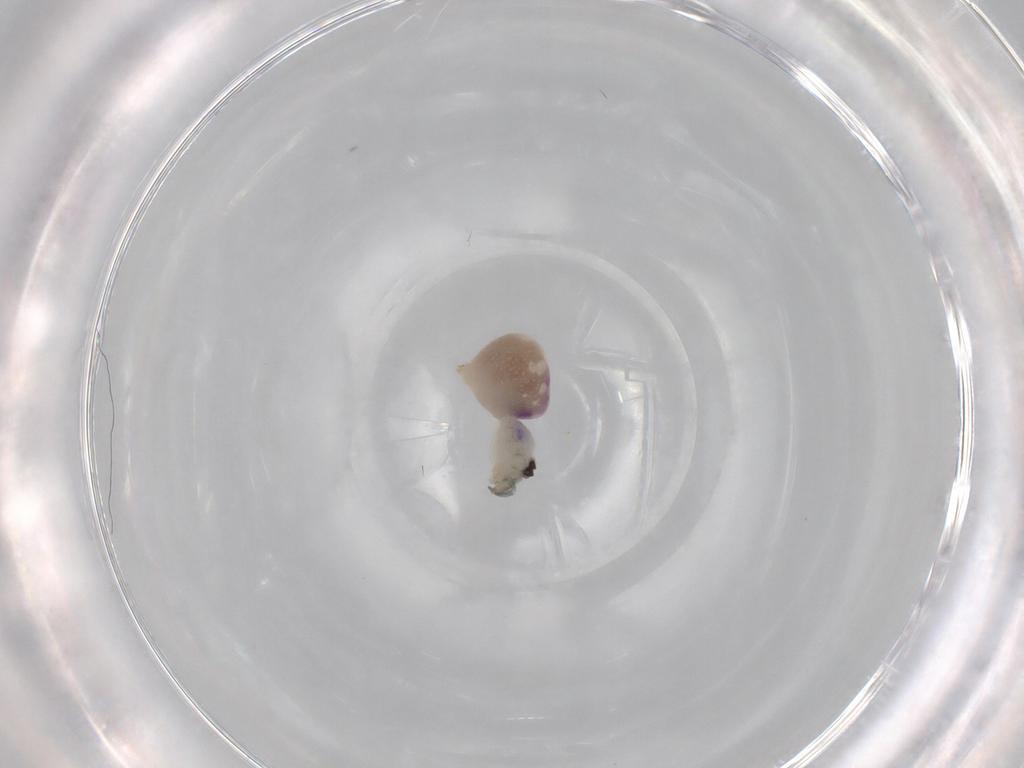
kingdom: Animalia
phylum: Arthropoda
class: Arachnida
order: Araneae
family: Pholcidae
